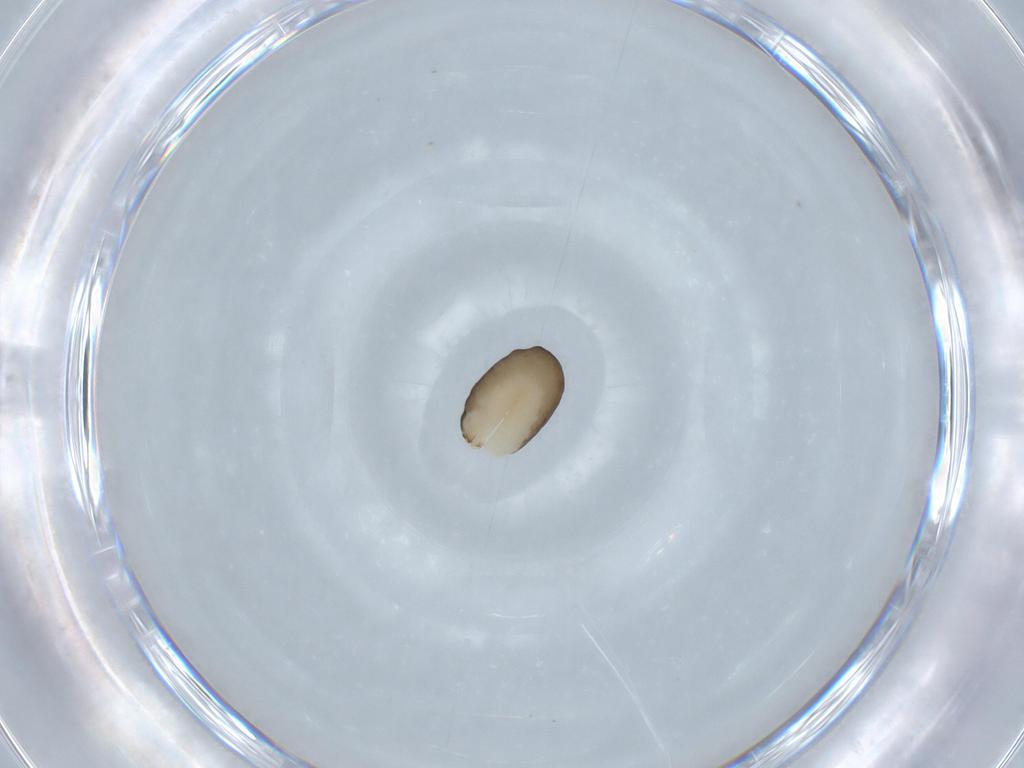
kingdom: Animalia
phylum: Arthropoda
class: Insecta
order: Hymenoptera
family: Dryinidae
